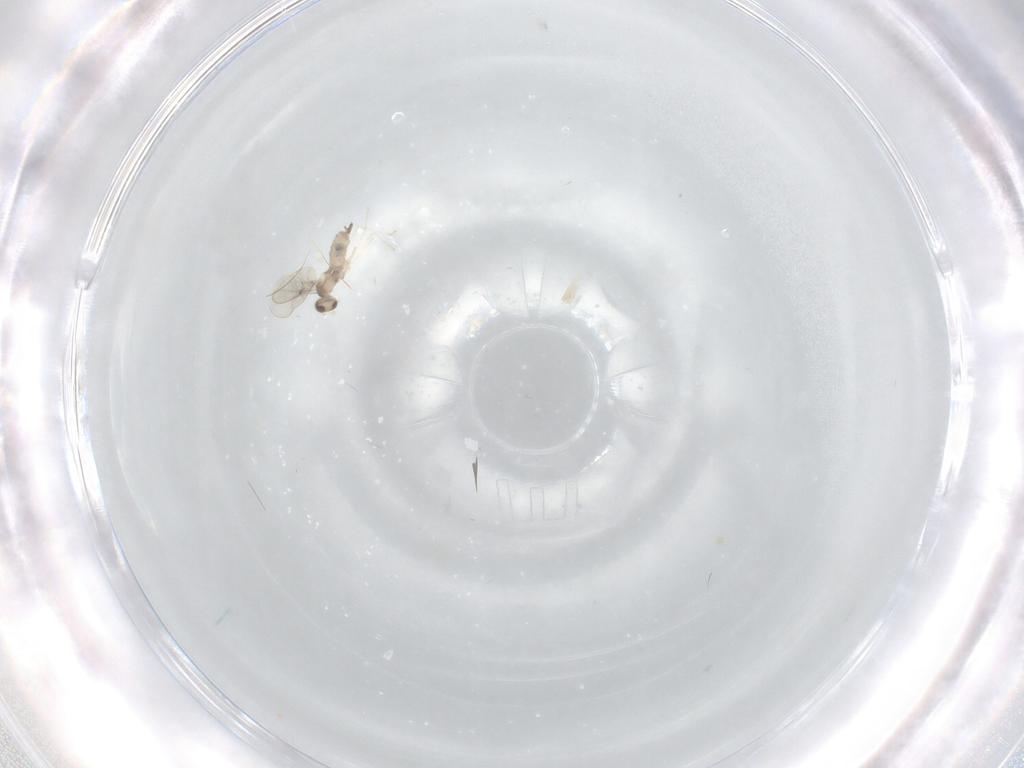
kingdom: Animalia
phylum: Arthropoda
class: Insecta
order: Diptera
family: Cecidomyiidae
